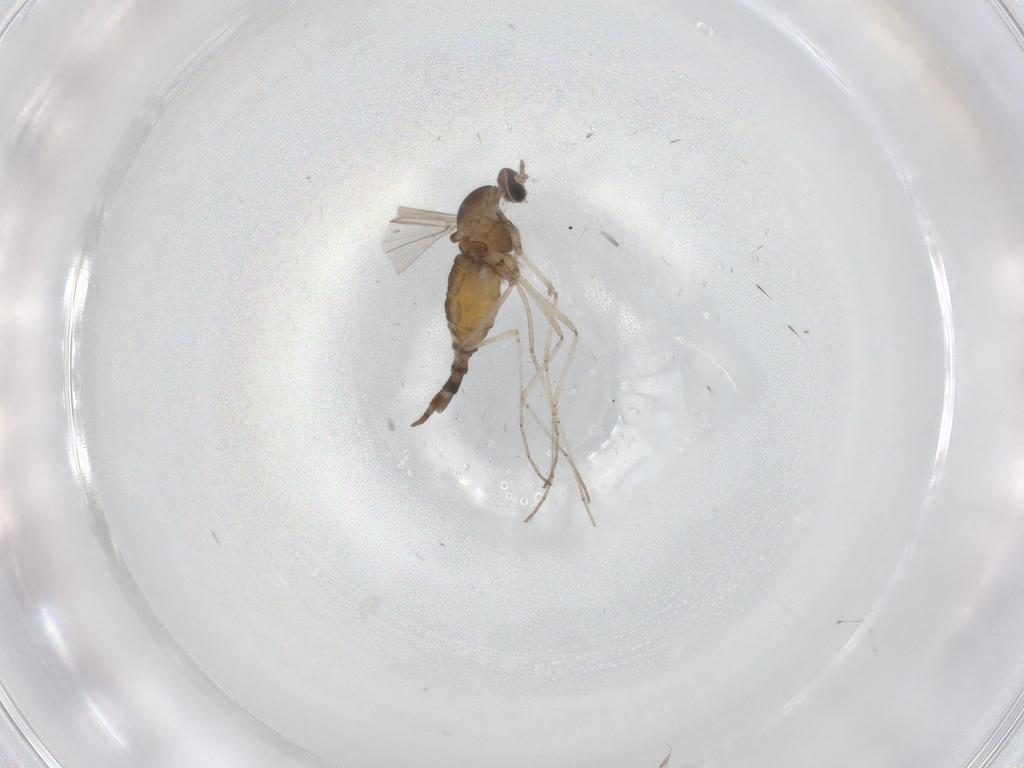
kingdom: Animalia
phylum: Arthropoda
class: Insecta
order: Diptera
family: Cecidomyiidae
